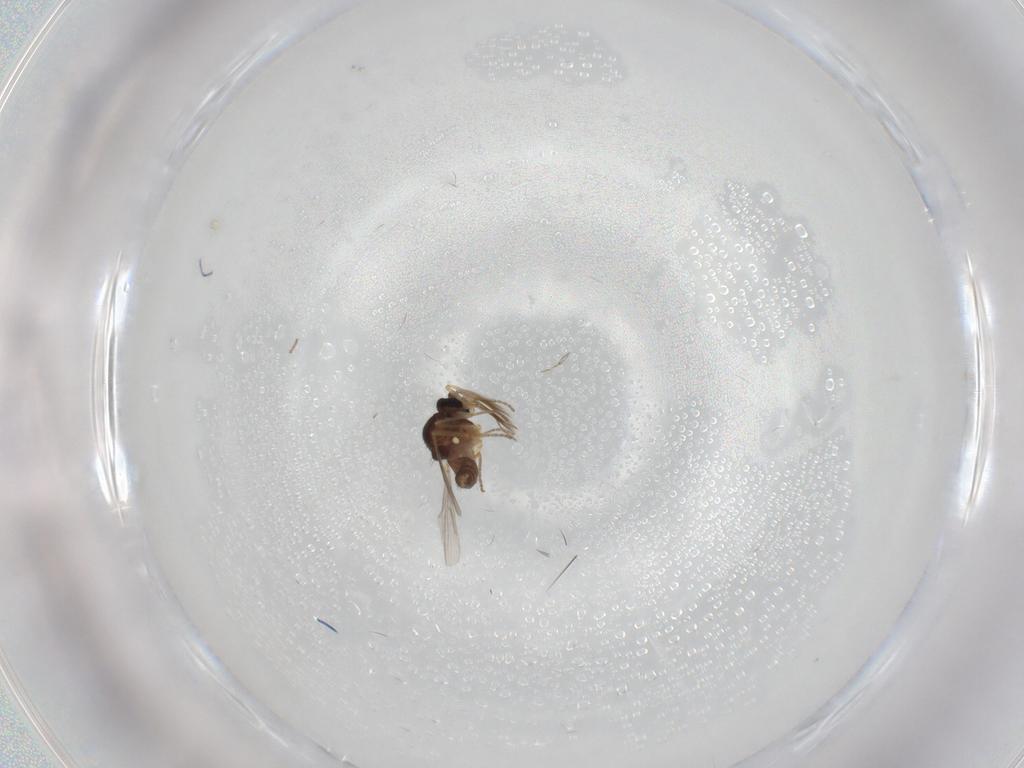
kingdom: Animalia
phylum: Arthropoda
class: Insecta
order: Diptera
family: Ceratopogonidae
